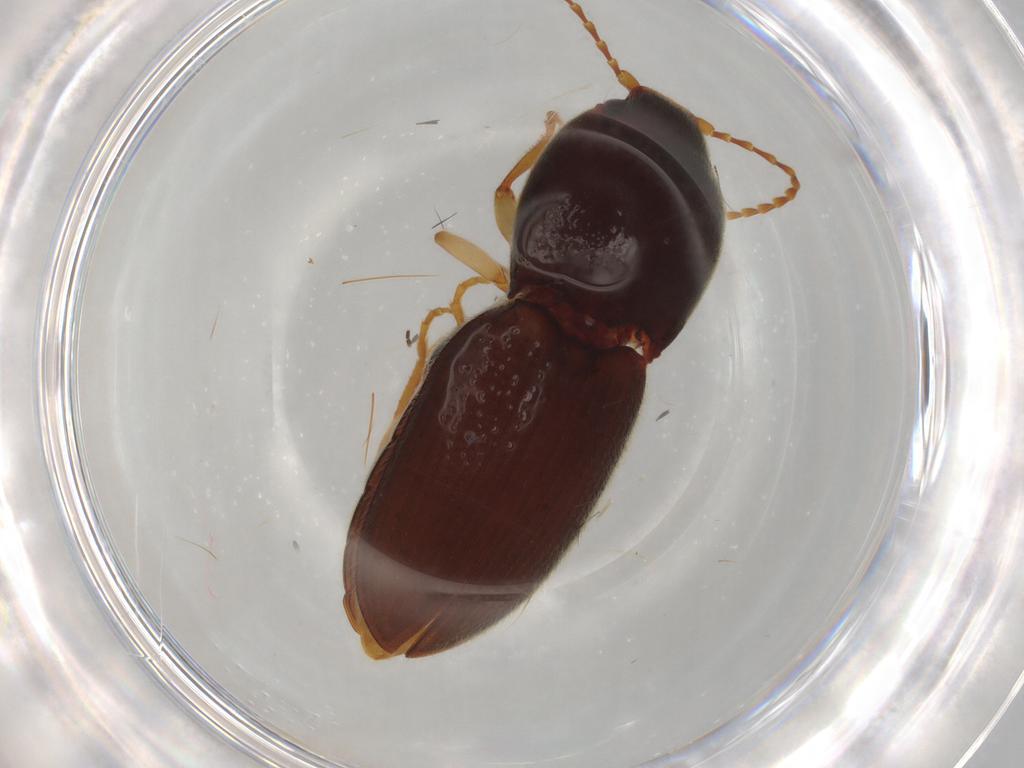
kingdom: Animalia
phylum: Arthropoda
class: Insecta
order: Coleoptera
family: Elateridae
